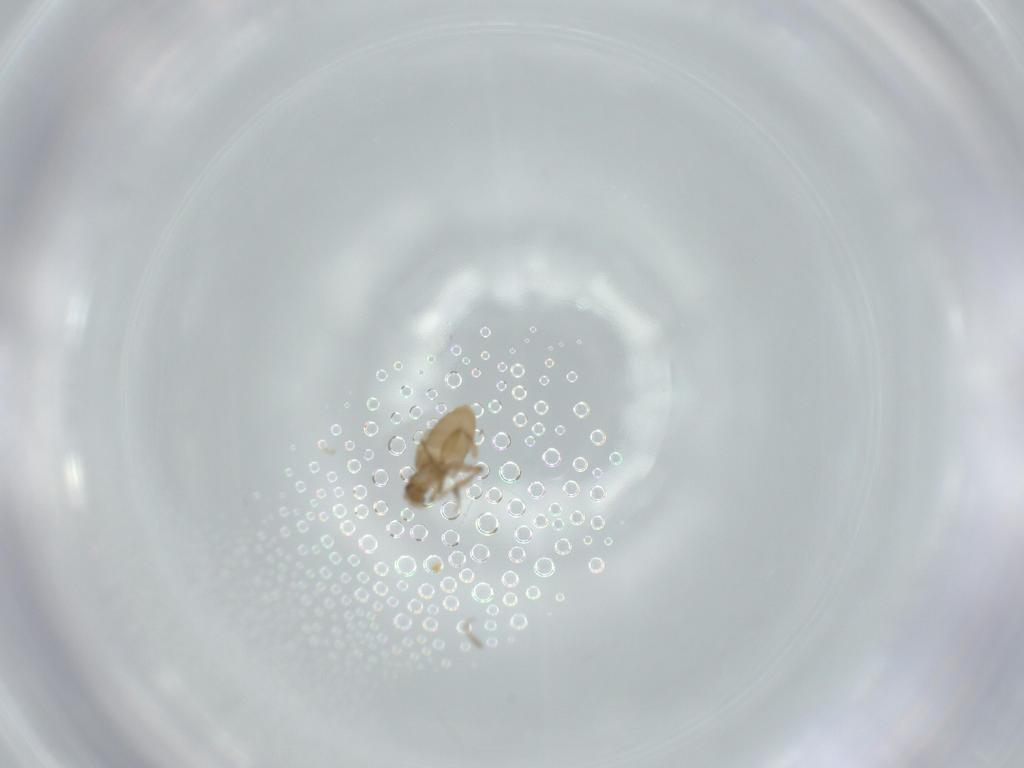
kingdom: Animalia
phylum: Arthropoda
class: Insecta
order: Diptera
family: Phoridae
